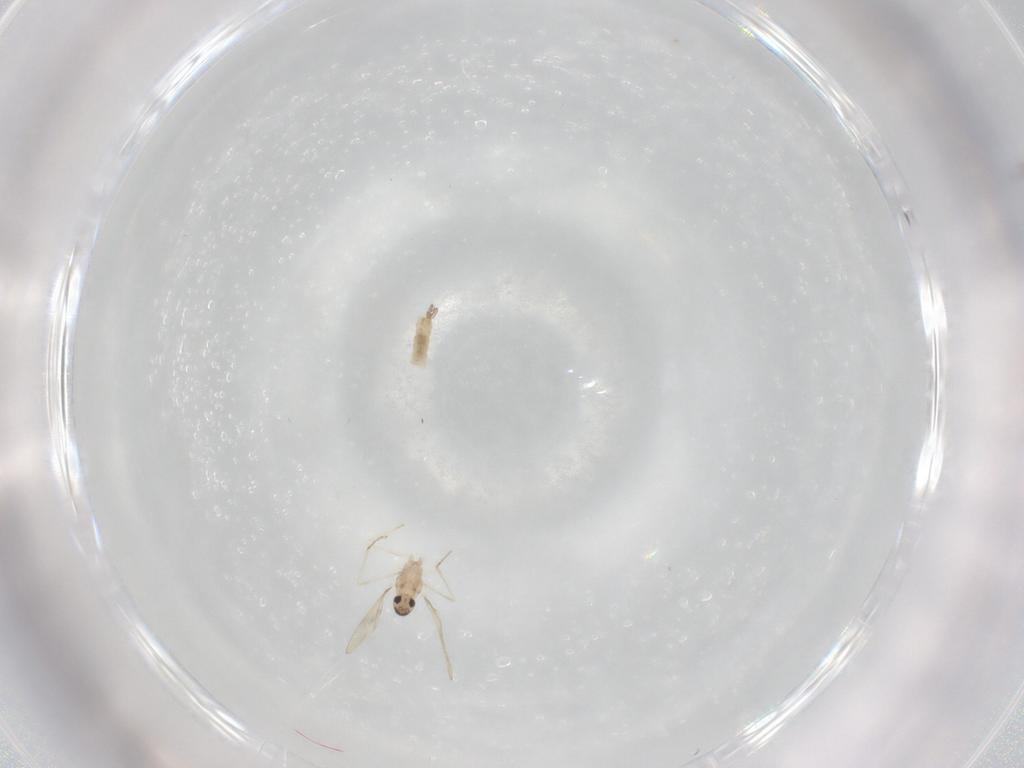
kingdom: Animalia
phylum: Arthropoda
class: Insecta
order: Diptera
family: Cecidomyiidae
